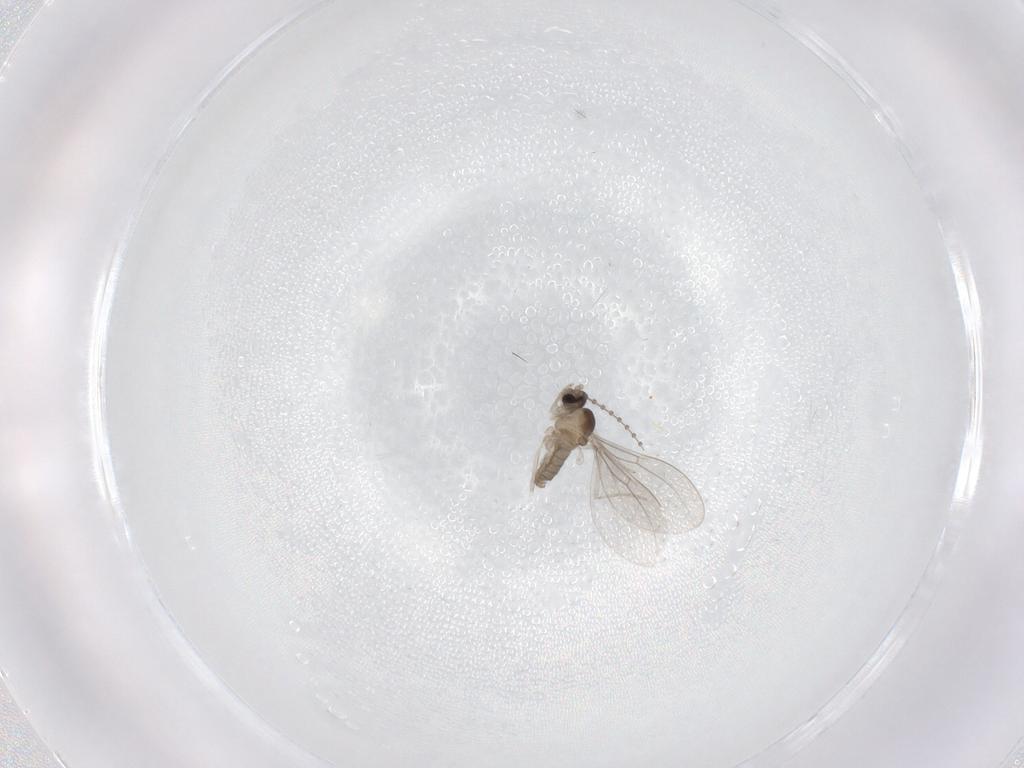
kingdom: Animalia
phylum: Arthropoda
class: Insecta
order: Diptera
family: Cecidomyiidae
